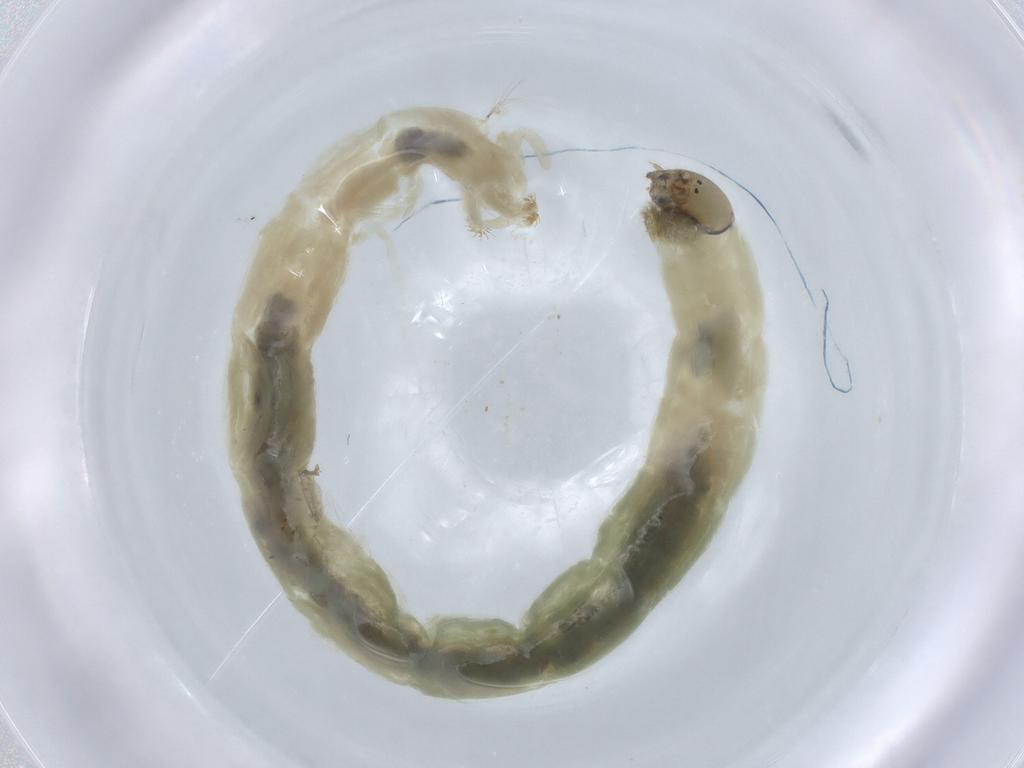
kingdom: Animalia
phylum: Arthropoda
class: Insecta
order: Diptera
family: Chironomidae
